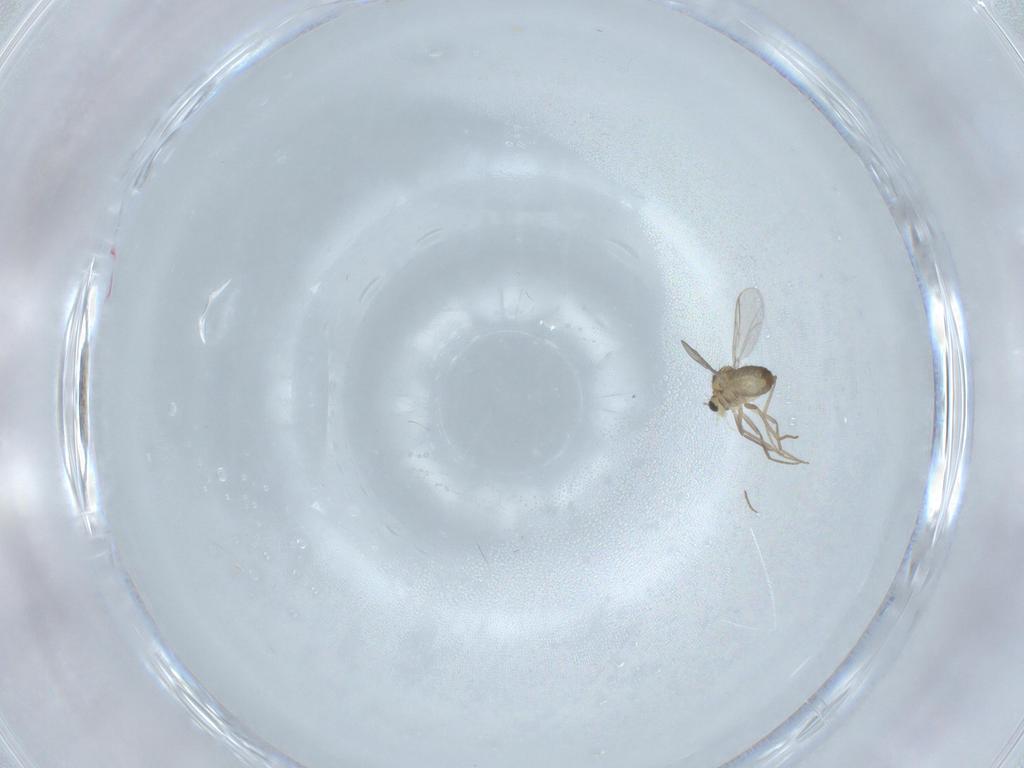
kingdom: Animalia
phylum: Arthropoda
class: Insecta
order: Diptera
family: Chironomidae
